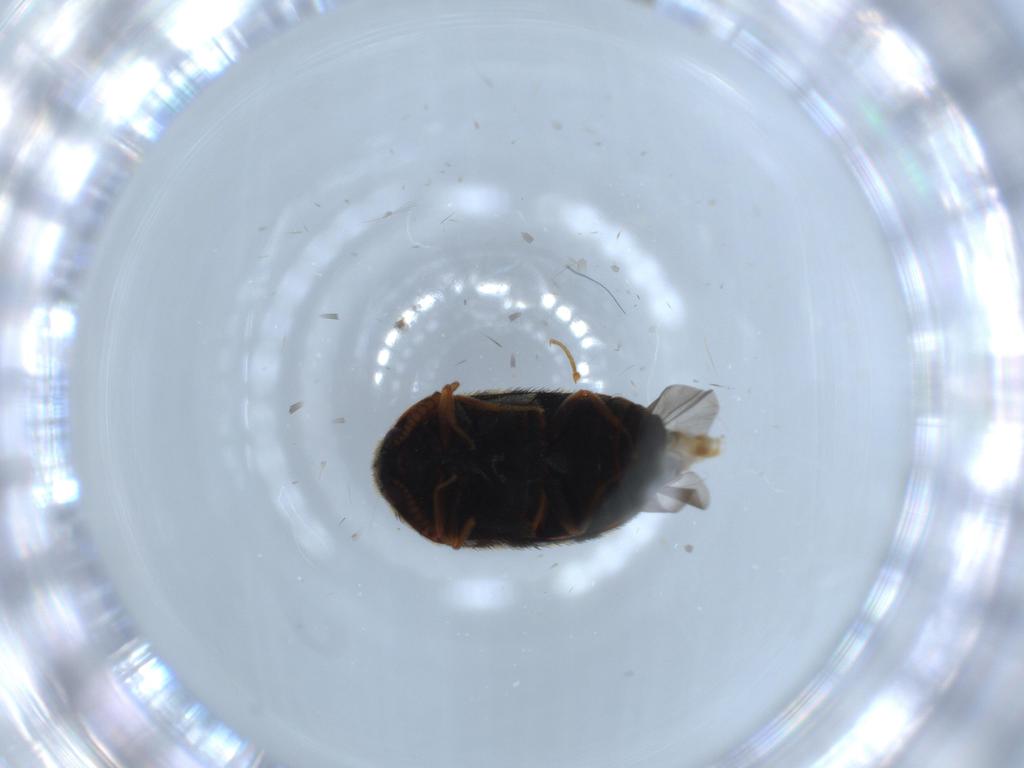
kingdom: Animalia
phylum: Arthropoda
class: Insecta
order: Coleoptera
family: Dermestidae
